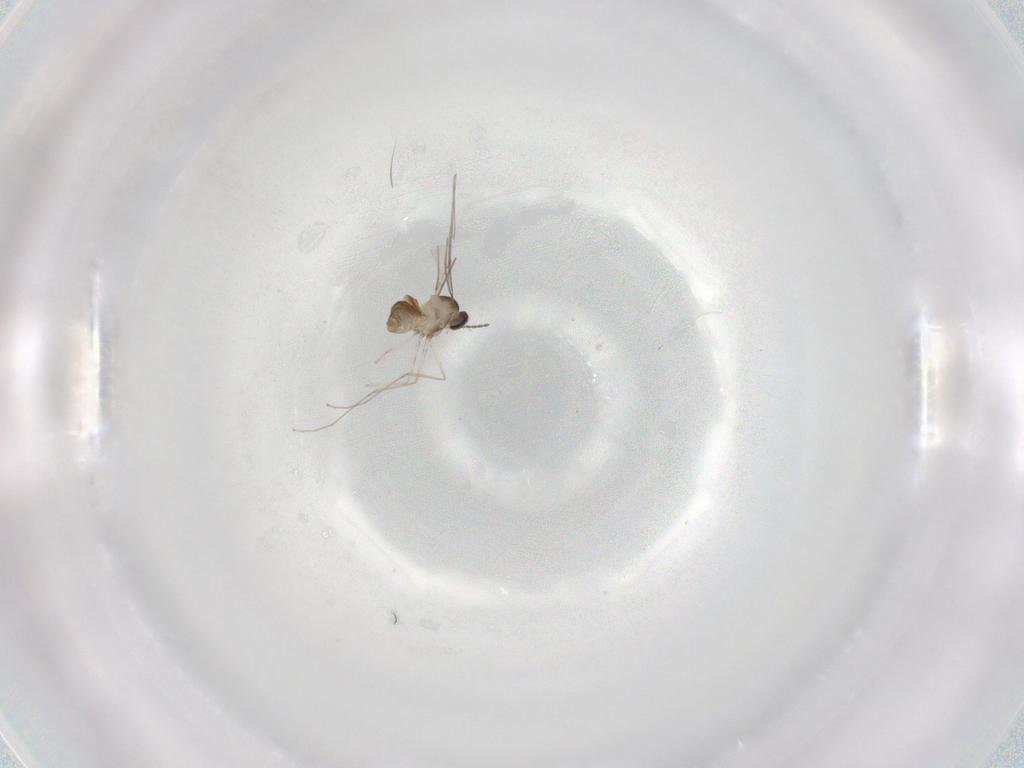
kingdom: Animalia
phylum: Arthropoda
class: Insecta
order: Diptera
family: Cecidomyiidae
